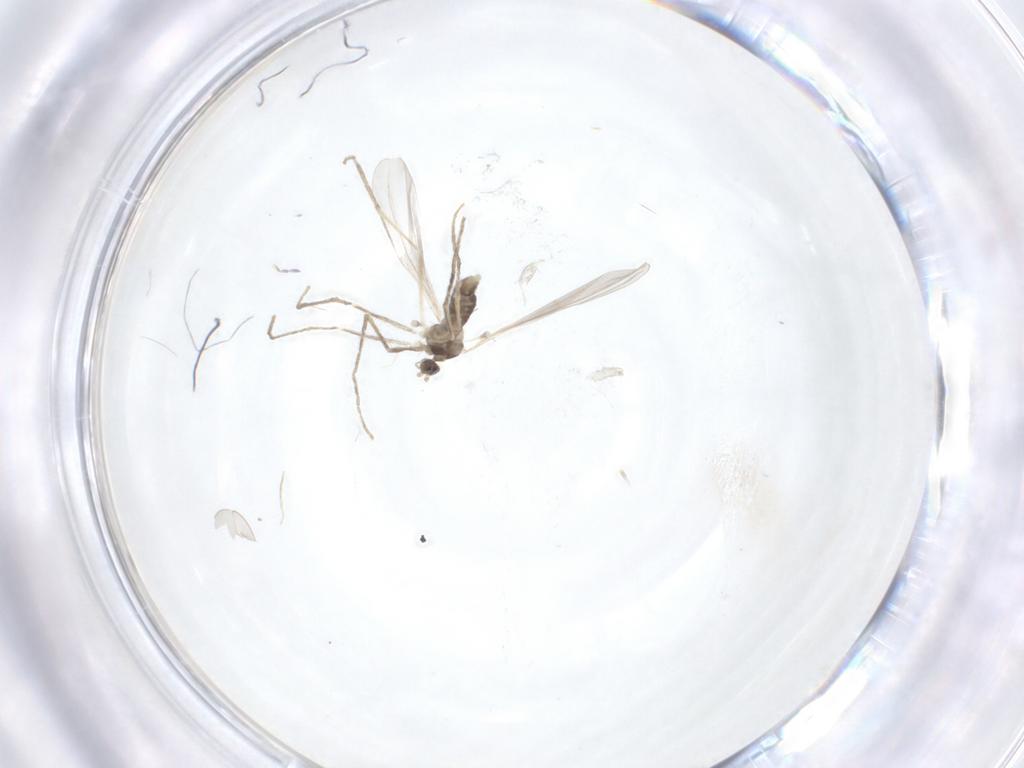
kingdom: Animalia
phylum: Arthropoda
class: Insecta
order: Diptera
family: Cecidomyiidae
